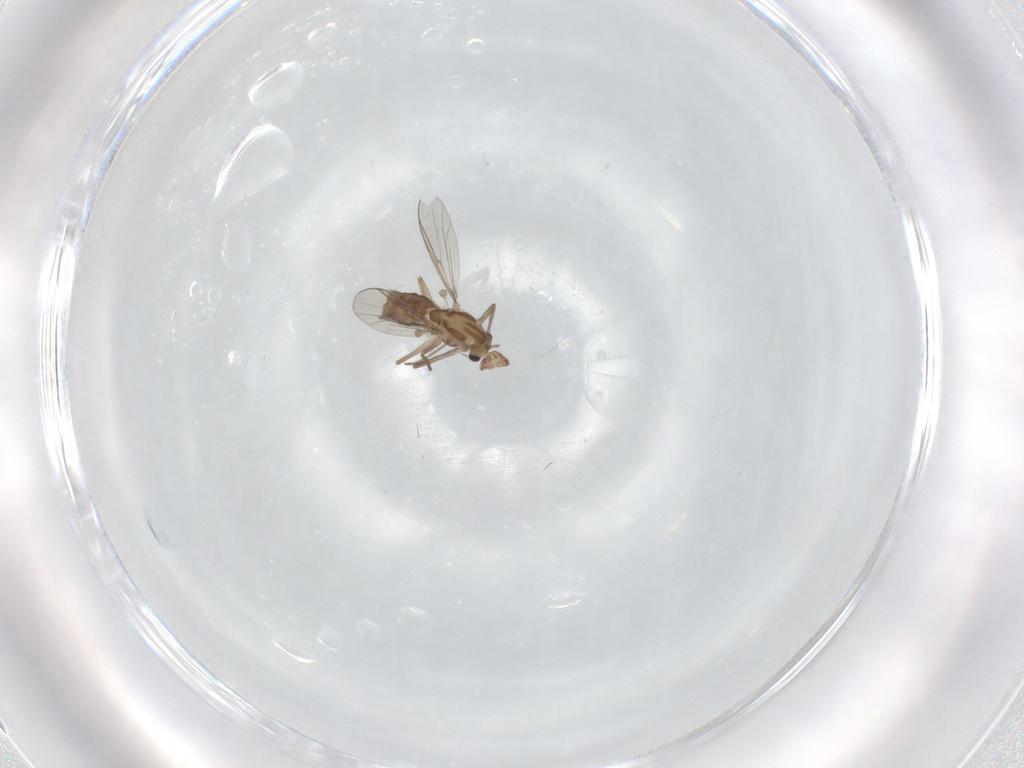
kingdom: Animalia
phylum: Arthropoda
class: Insecta
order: Diptera
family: Chironomidae
